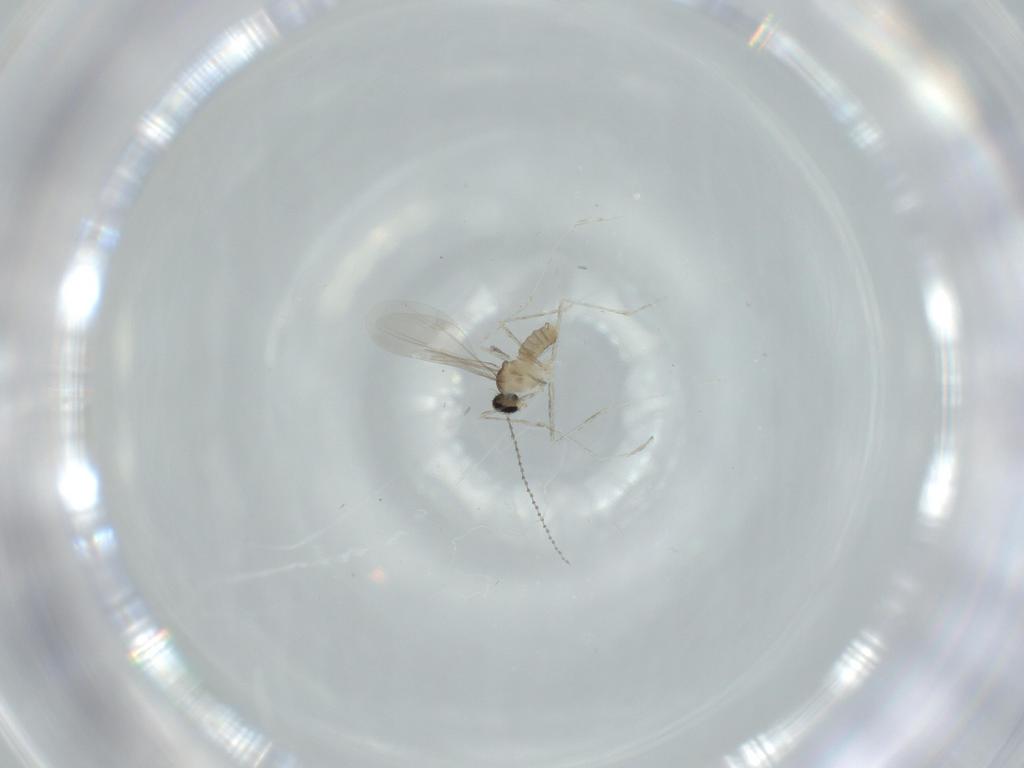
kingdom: Animalia
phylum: Arthropoda
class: Insecta
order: Diptera
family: Cecidomyiidae
